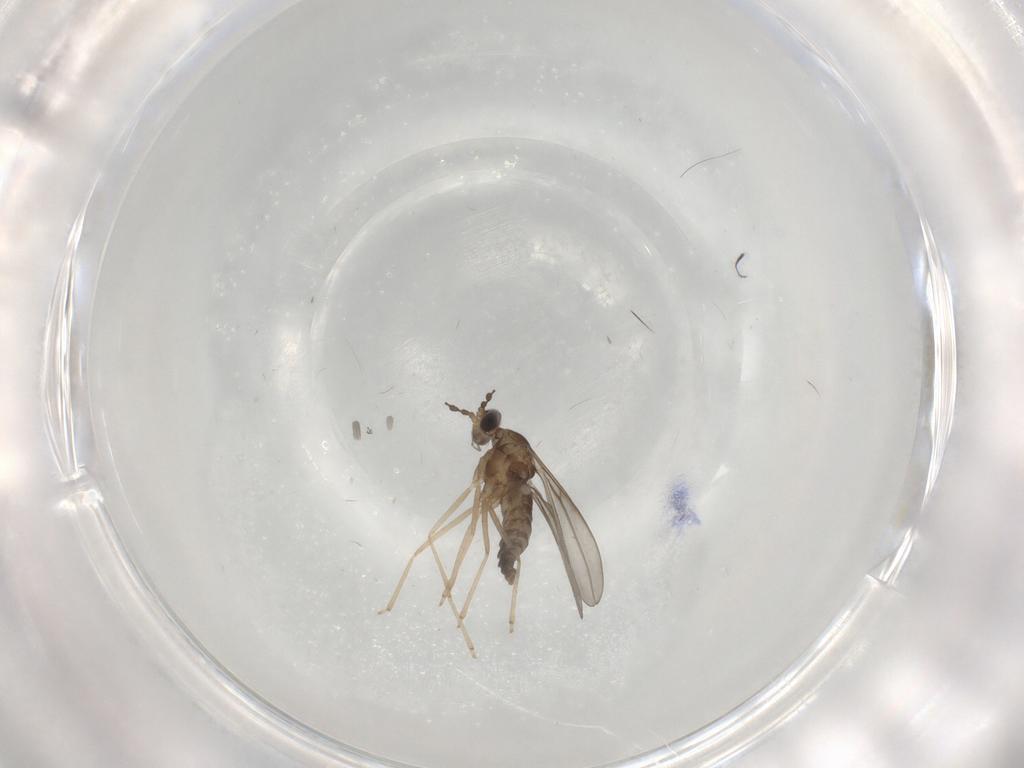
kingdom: Animalia
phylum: Arthropoda
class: Insecta
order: Diptera
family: Cecidomyiidae
